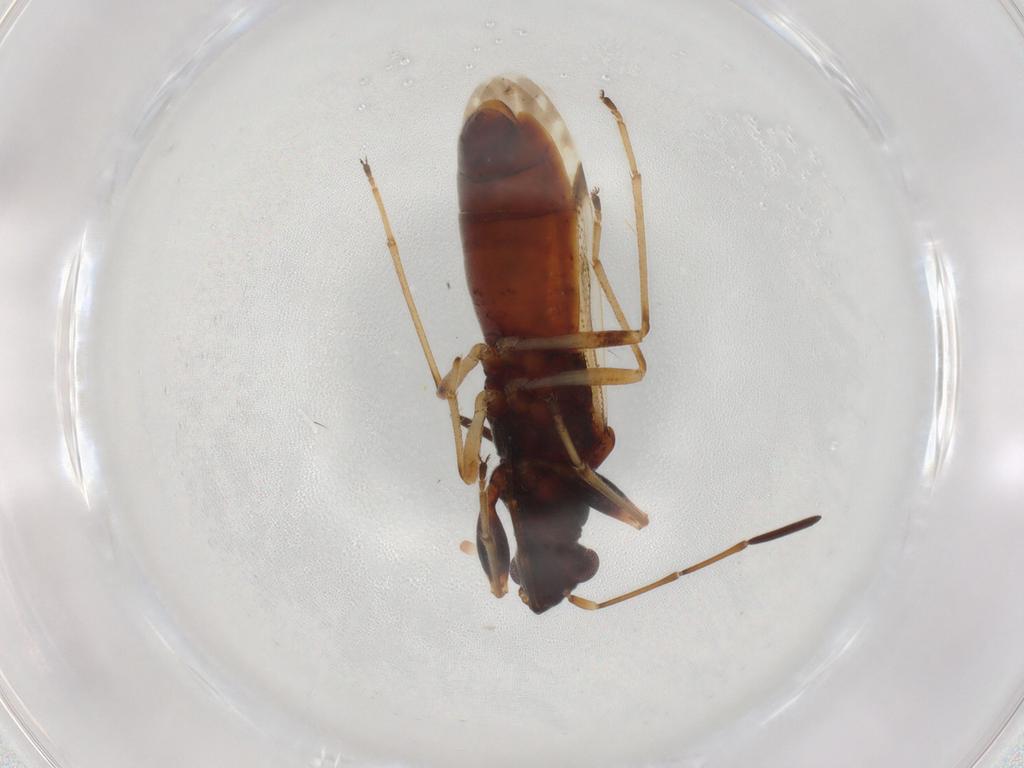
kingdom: Animalia
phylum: Arthropoda
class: Insecta
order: Hemiptera
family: Rhyparochromidae
